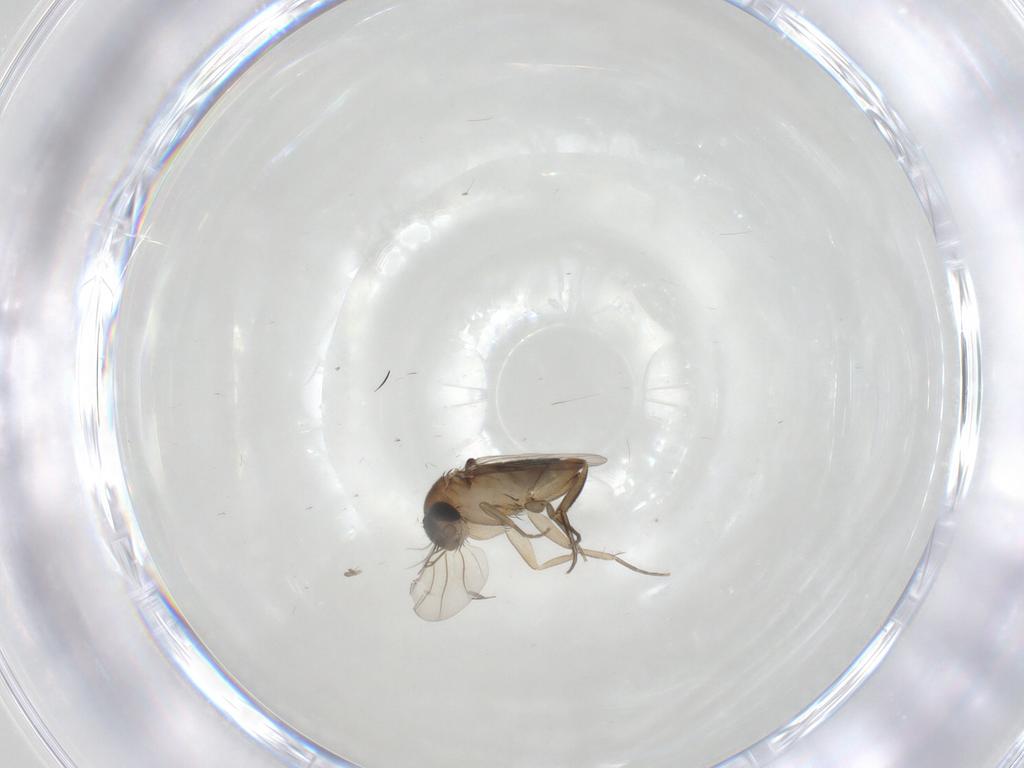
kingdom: Animalia
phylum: Arthropoda
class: Insecta
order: Diptera
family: Phoridae
